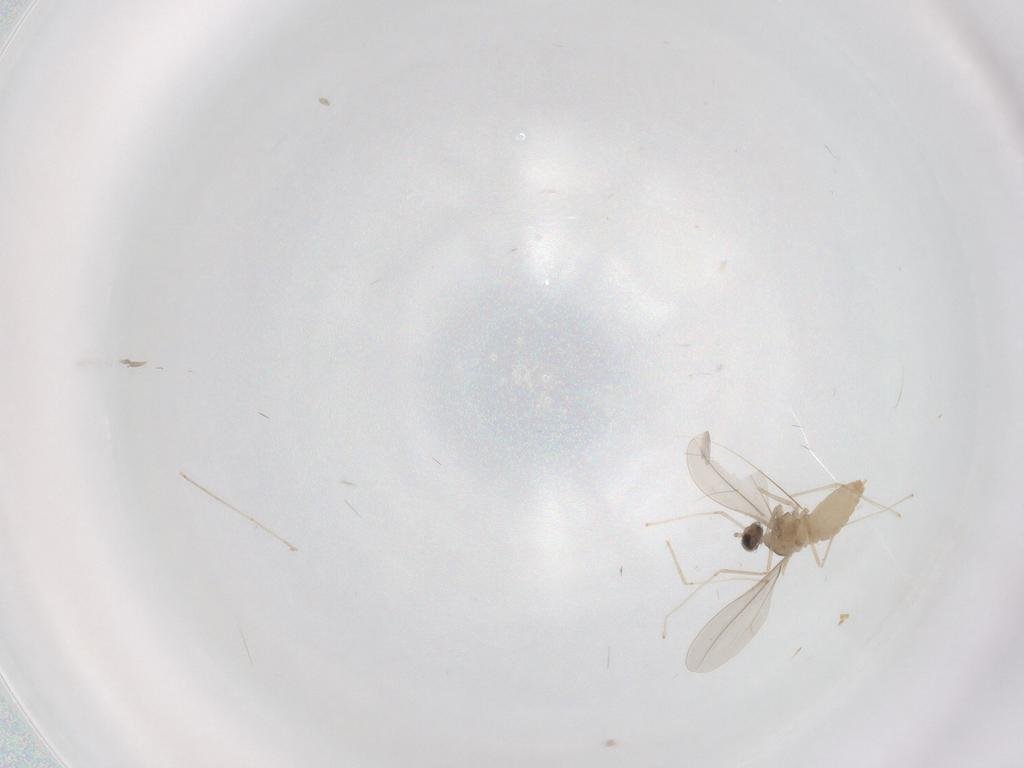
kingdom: Animalia
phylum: Arthropoda
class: Insecta
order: Diptera
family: Cecidomyiidae
